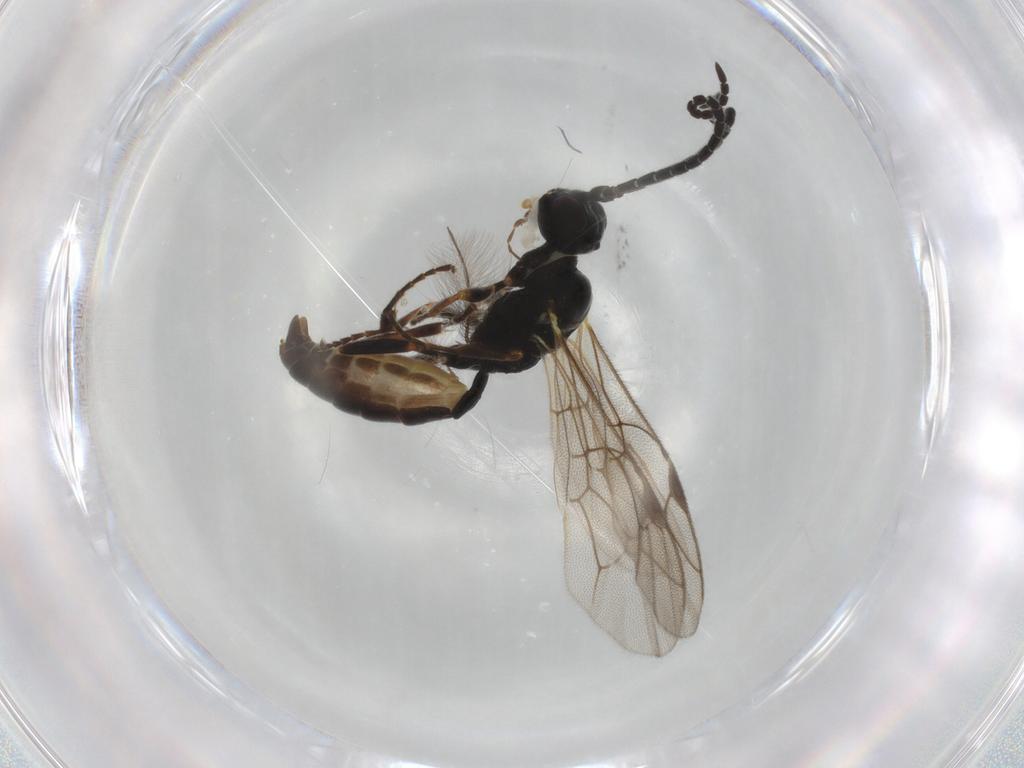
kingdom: Animalia
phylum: Arthropoda
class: Insecta
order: Hymenoptera
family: Ichneumonidae
